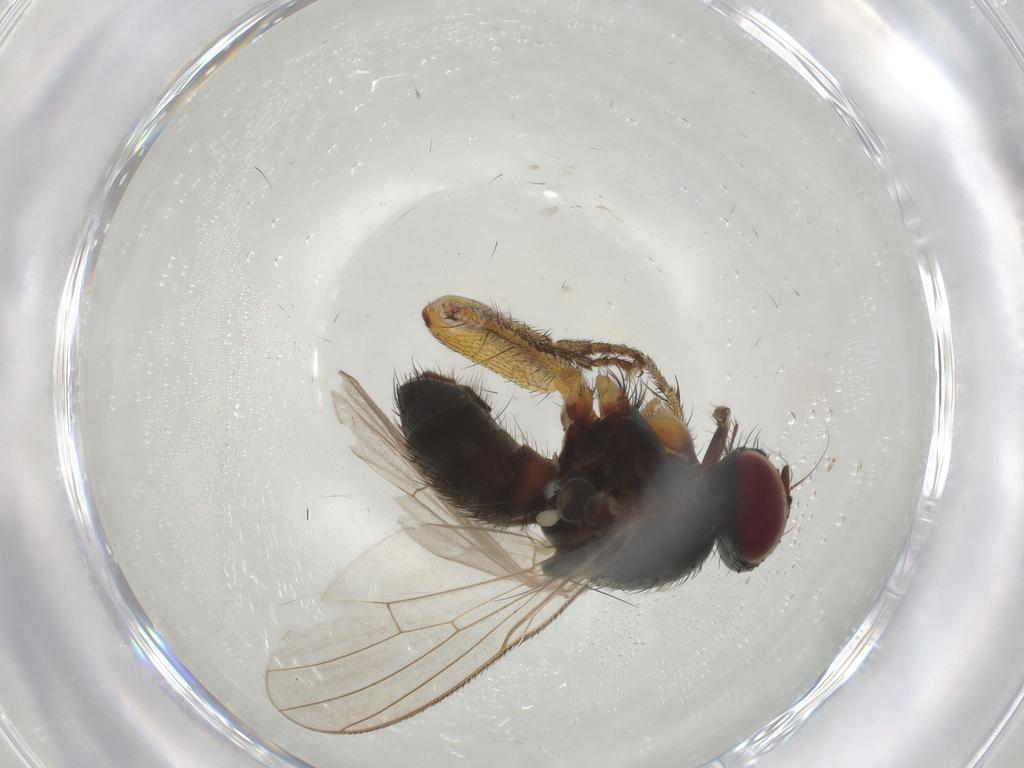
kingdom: Animalia
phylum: Arthropoda
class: Insecta
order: Diptera
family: Muscidae
